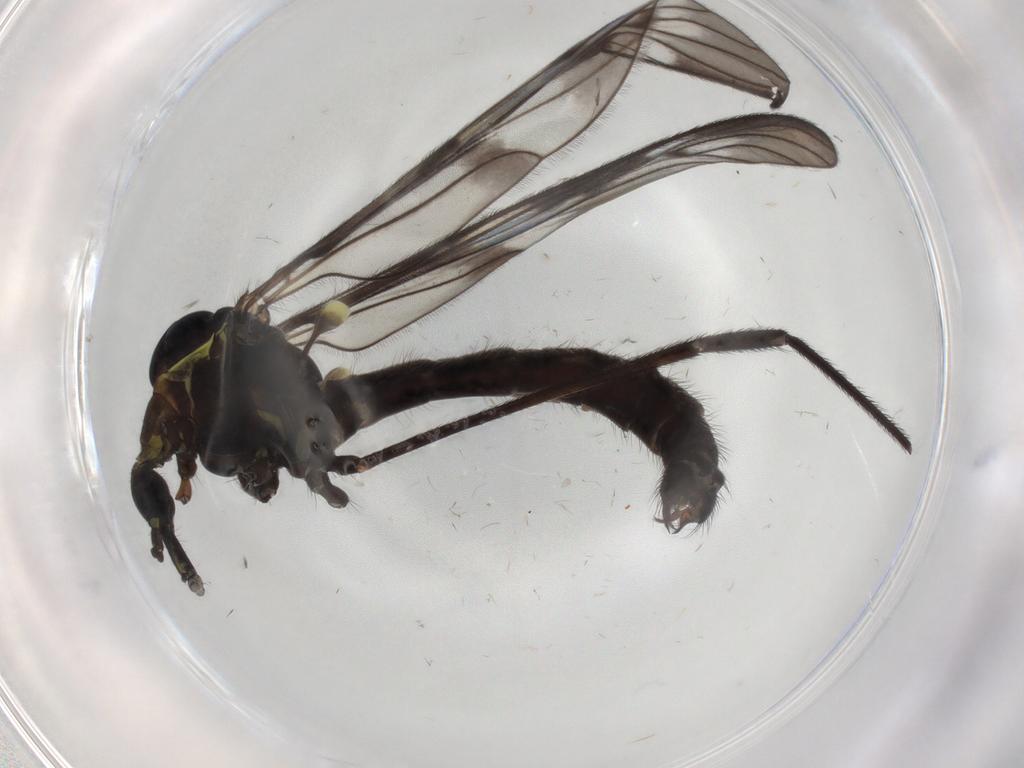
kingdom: Animalia
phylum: Arthropoda
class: Insecta
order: Diptera
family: Limoniidae
